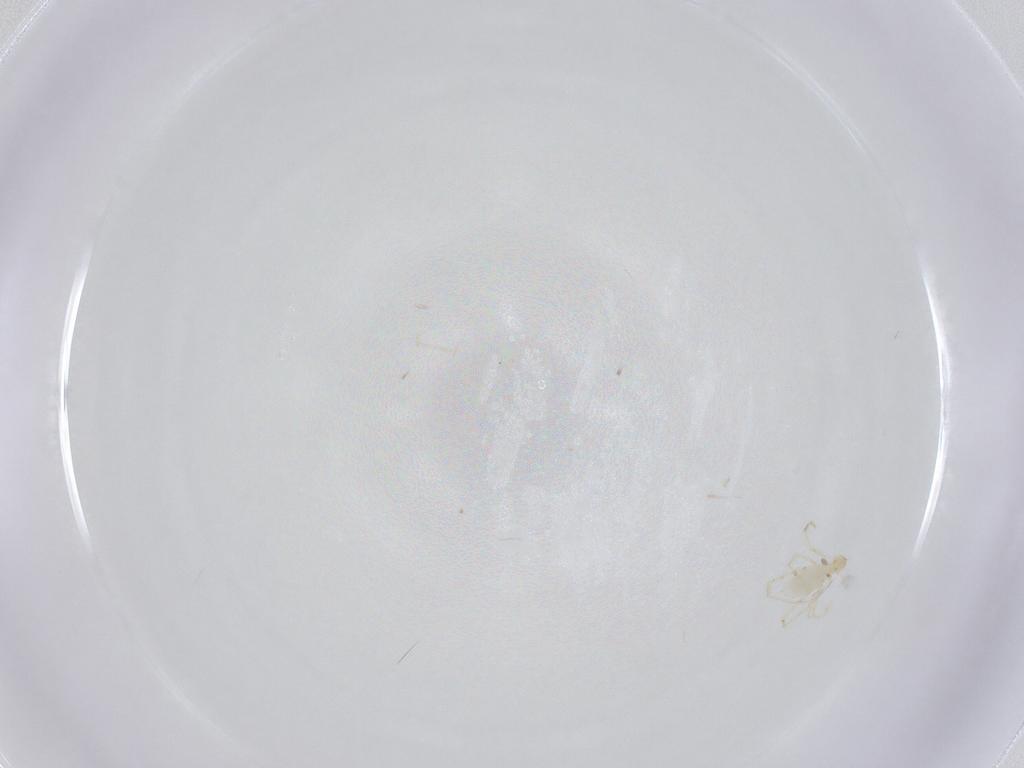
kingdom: Animalia
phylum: Arthropoda
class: Arachnida
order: Trombidiformes
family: Erythraeidae
